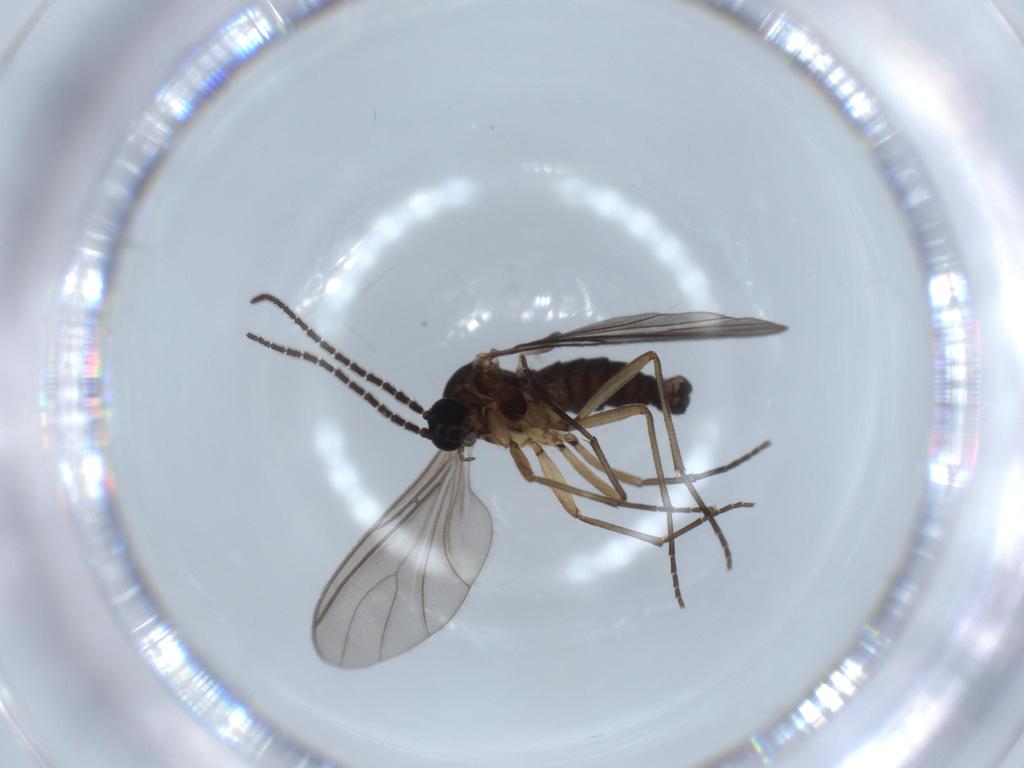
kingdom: Animalia
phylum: Arthropoda
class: Insecta
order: Diptera
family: Sciaridae
